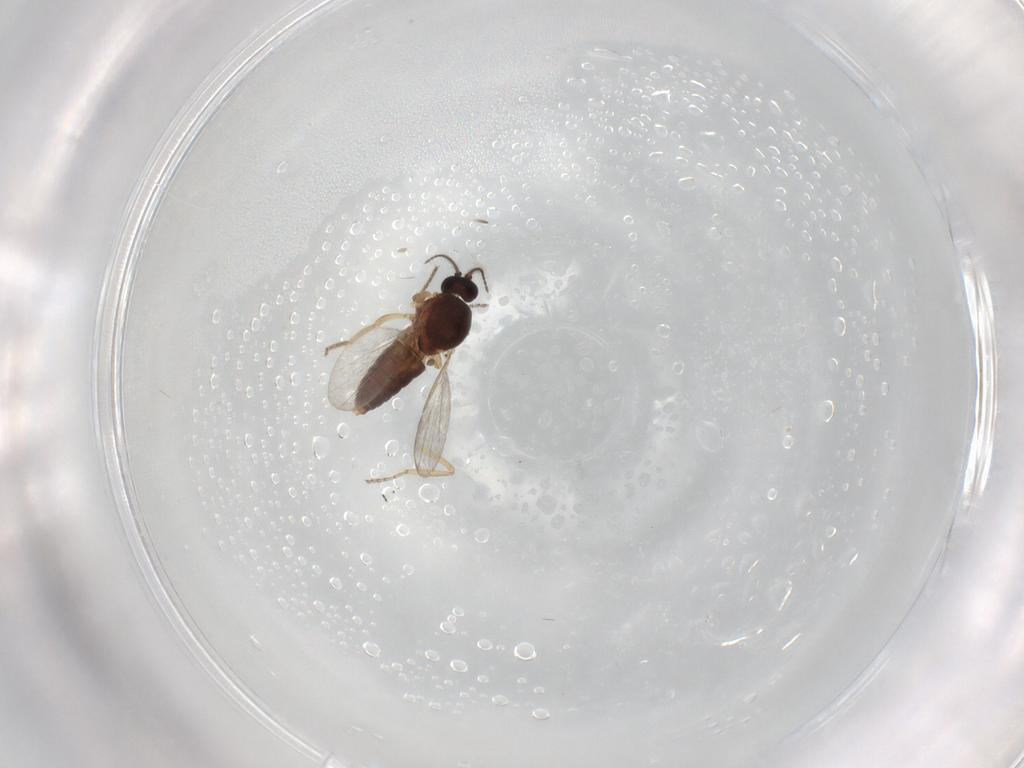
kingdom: Animalia
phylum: Arthropoda
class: Insecta
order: Diptera
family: Ceratopogonidae
